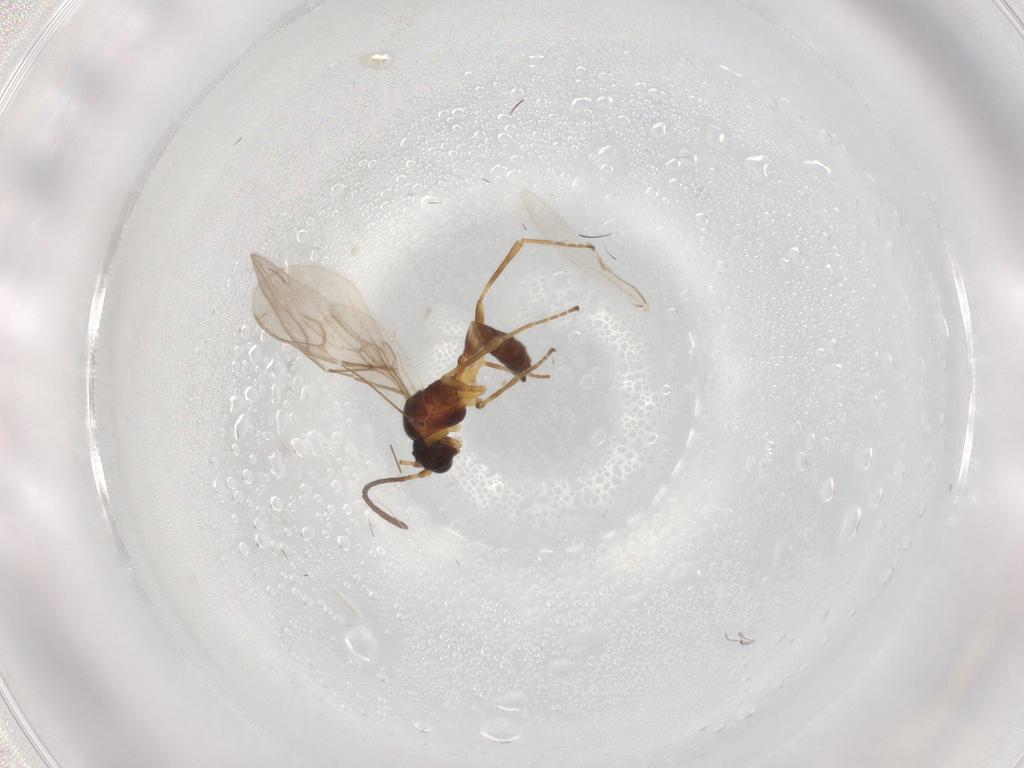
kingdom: Animalia
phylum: Arthropoda
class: Insecta
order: Hymenoptera
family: Braconidae
